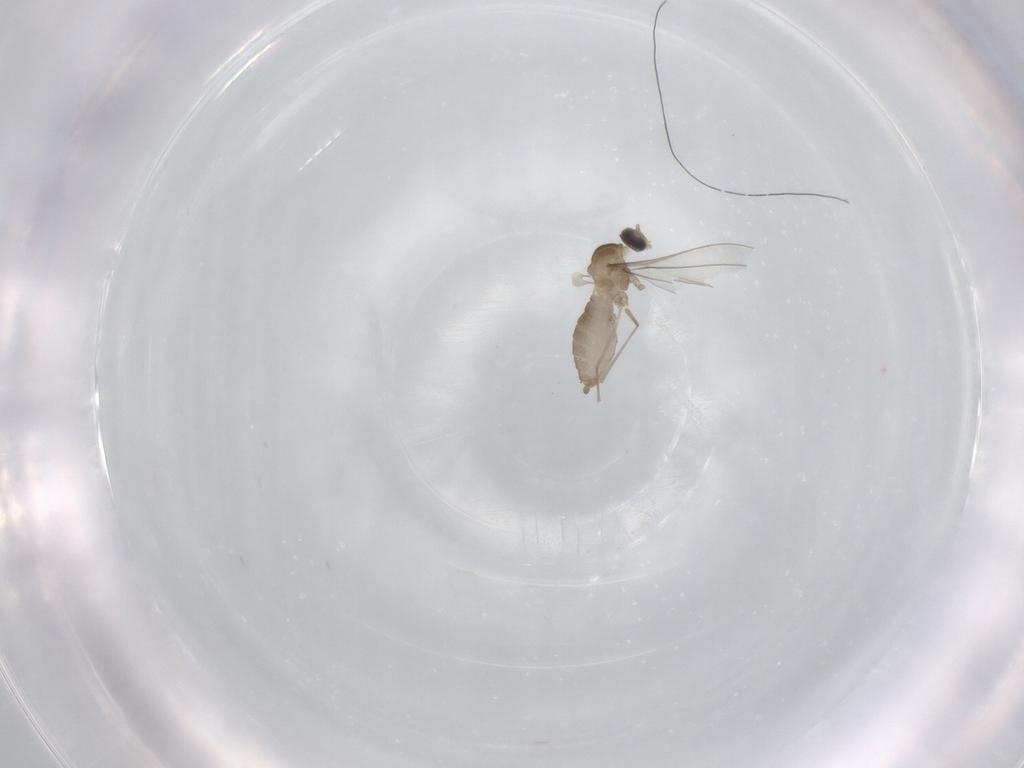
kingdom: Animalia
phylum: Arthropoda
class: Insecta
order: Diptera
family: Cecidomyiidae
